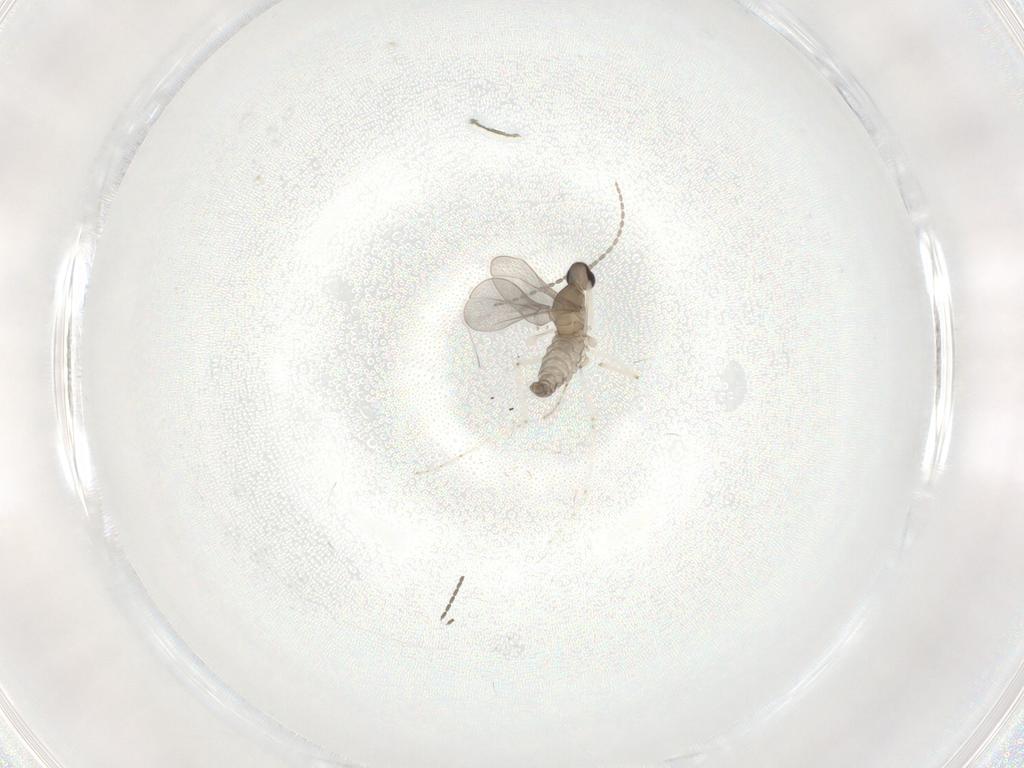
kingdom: Animalia
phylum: Arthropoda
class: Insecta
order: Diptera
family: Cecidomyiidae
